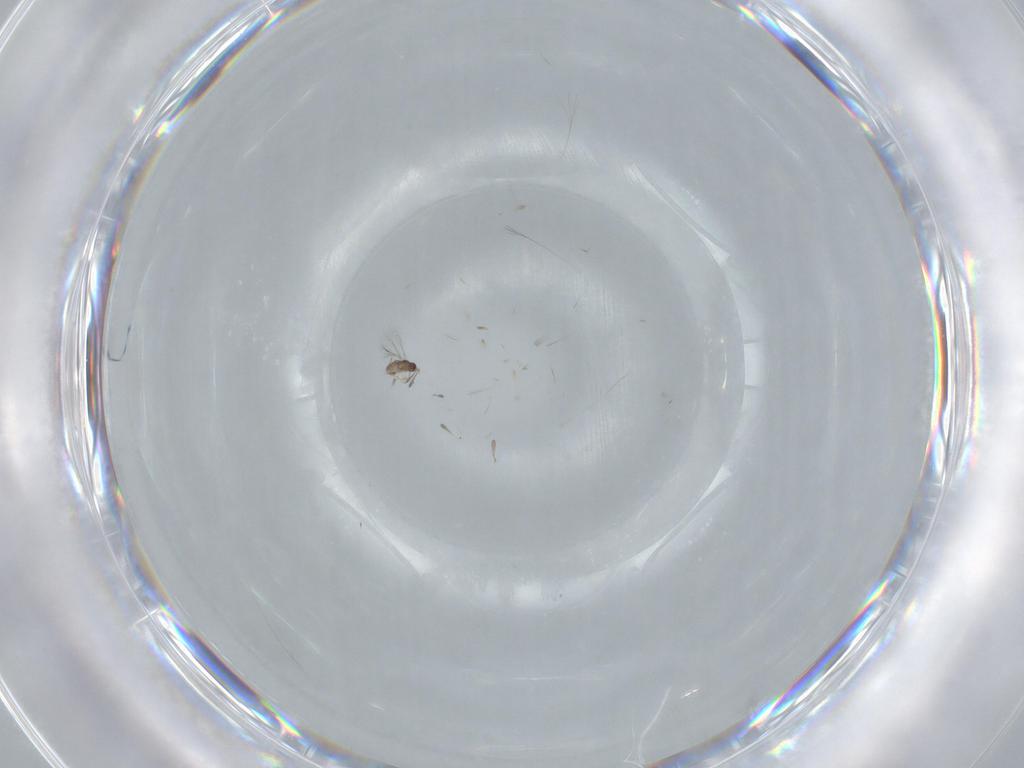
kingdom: Animalia
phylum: Arthropoda
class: Insecta
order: Hymenoptera
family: Mymaridae
